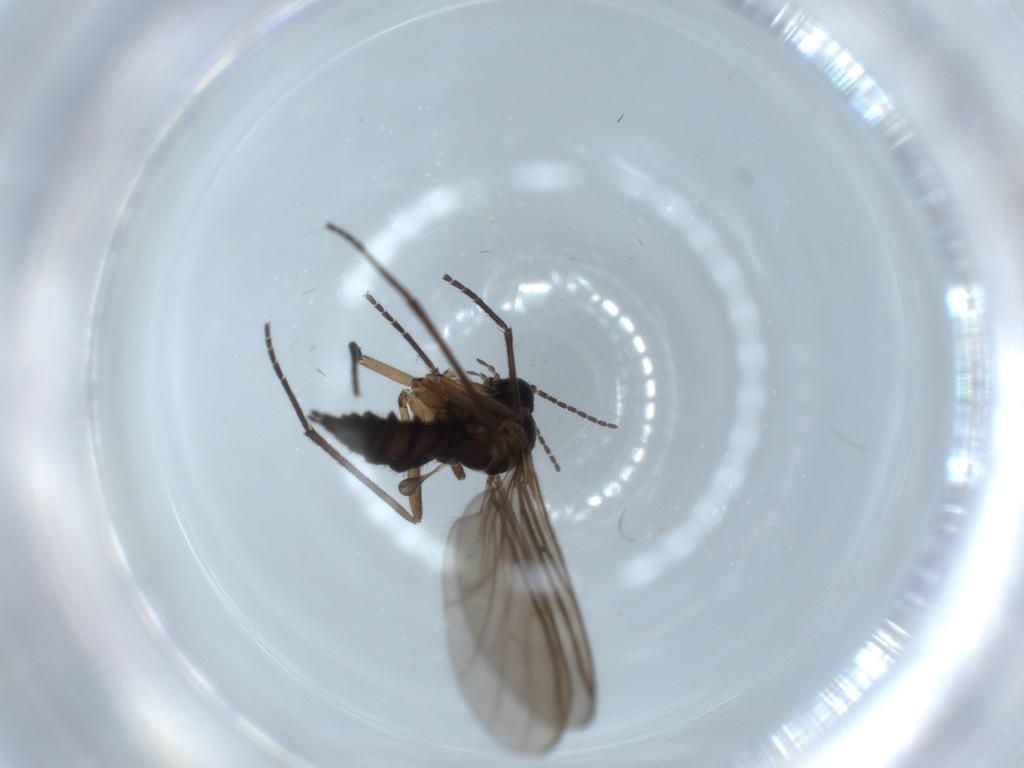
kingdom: Animalia
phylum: Arthropoda
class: Insecta
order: Diptera
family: Sciaridae
